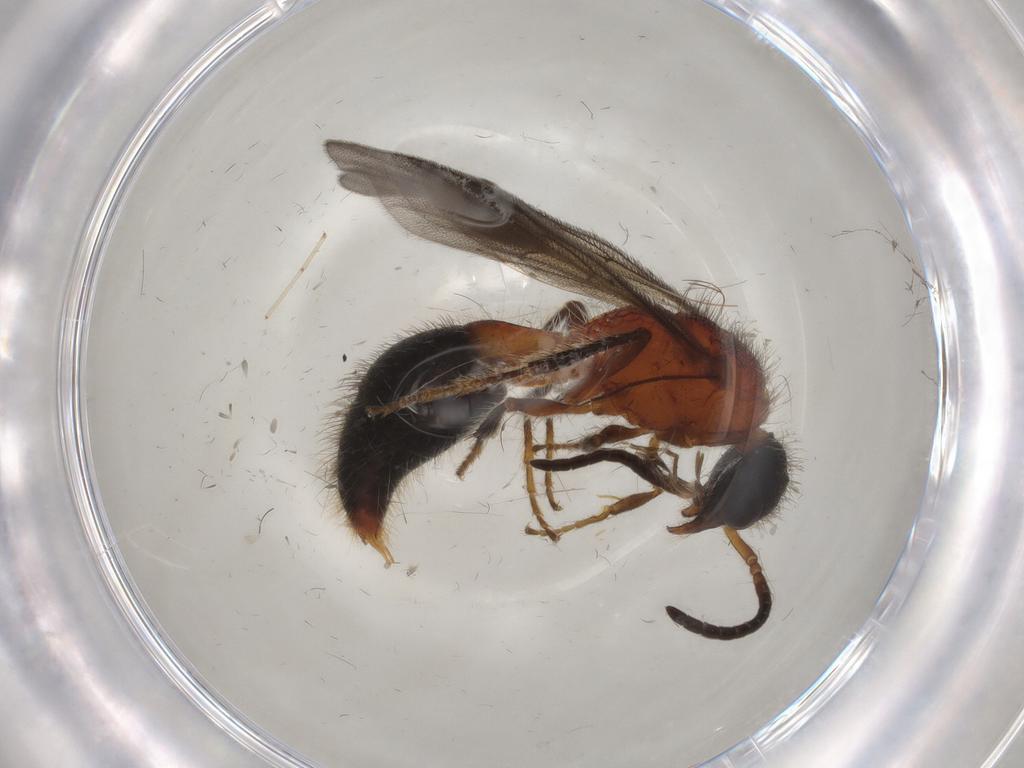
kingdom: Animalia
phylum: Arthropoda
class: Insecta
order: Hymenoptera
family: Mutillidae
